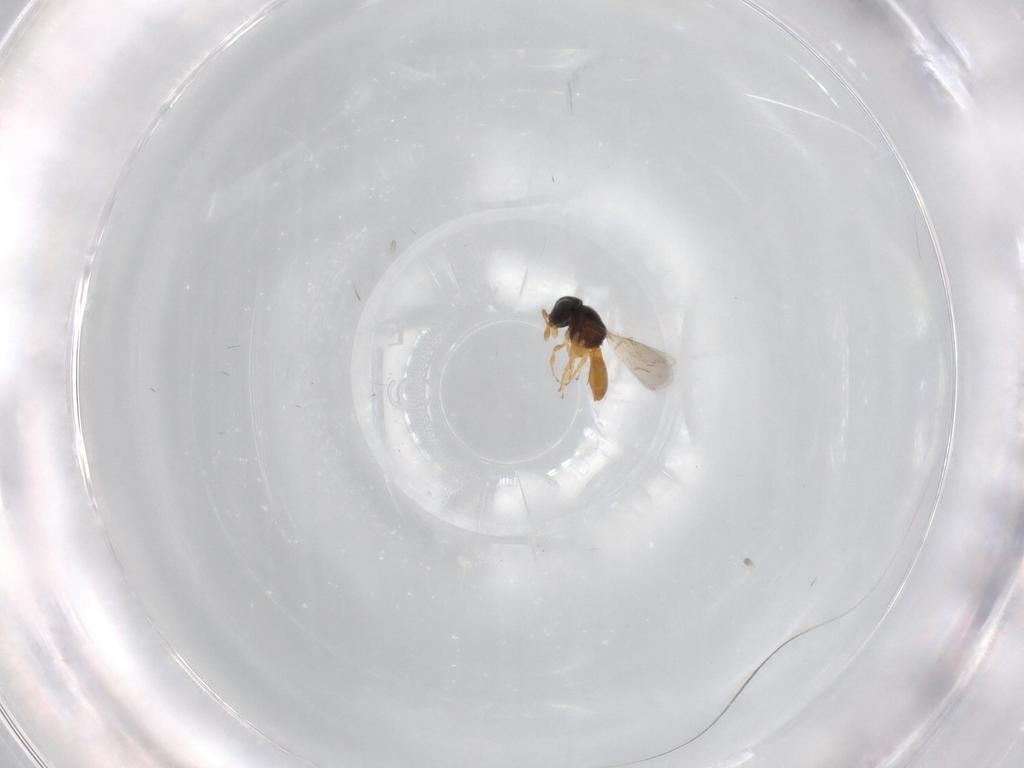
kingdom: Animalia
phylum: Arthropoda
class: Insecta
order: Hymenoptera
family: Scelionidae
